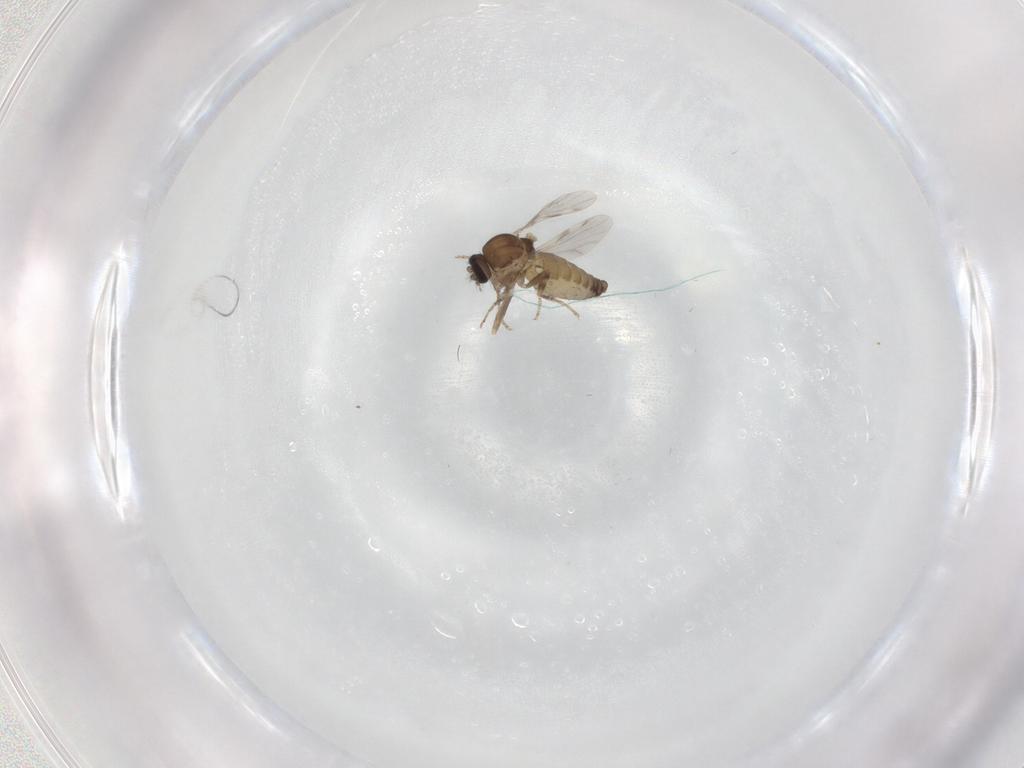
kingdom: Animalia
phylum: Arthropoda
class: Insecta
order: Diptera
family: Ceratopogonidae
